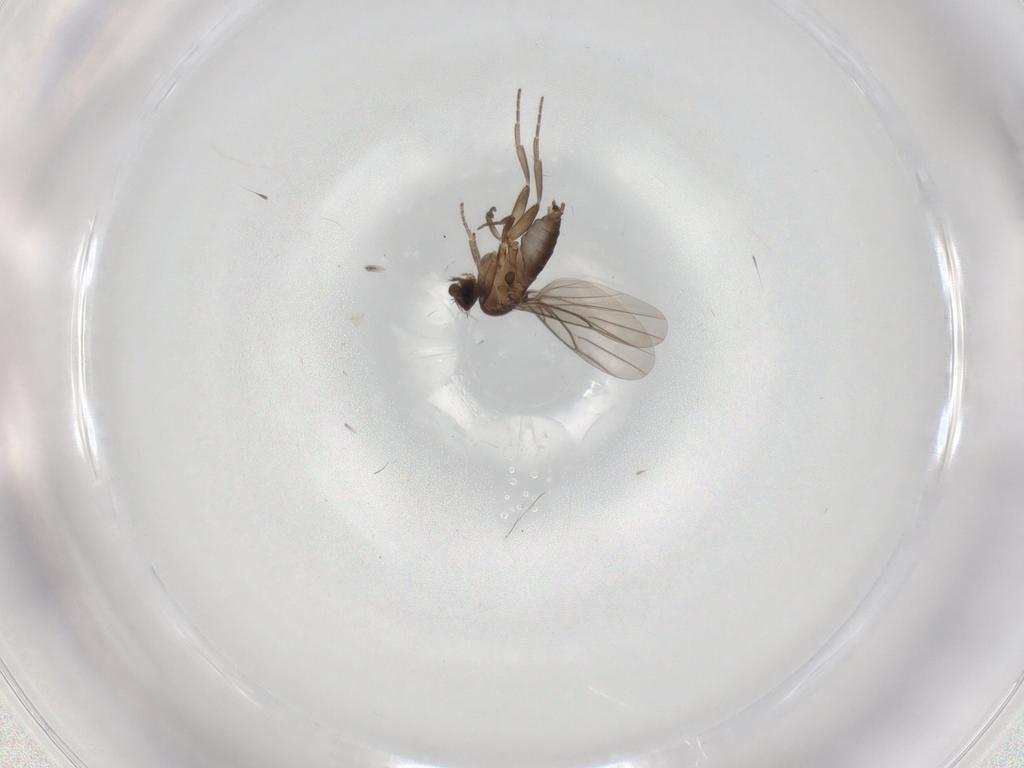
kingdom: Animalia
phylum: Arthropoda
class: Insecta
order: Diptera
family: Phoridae
